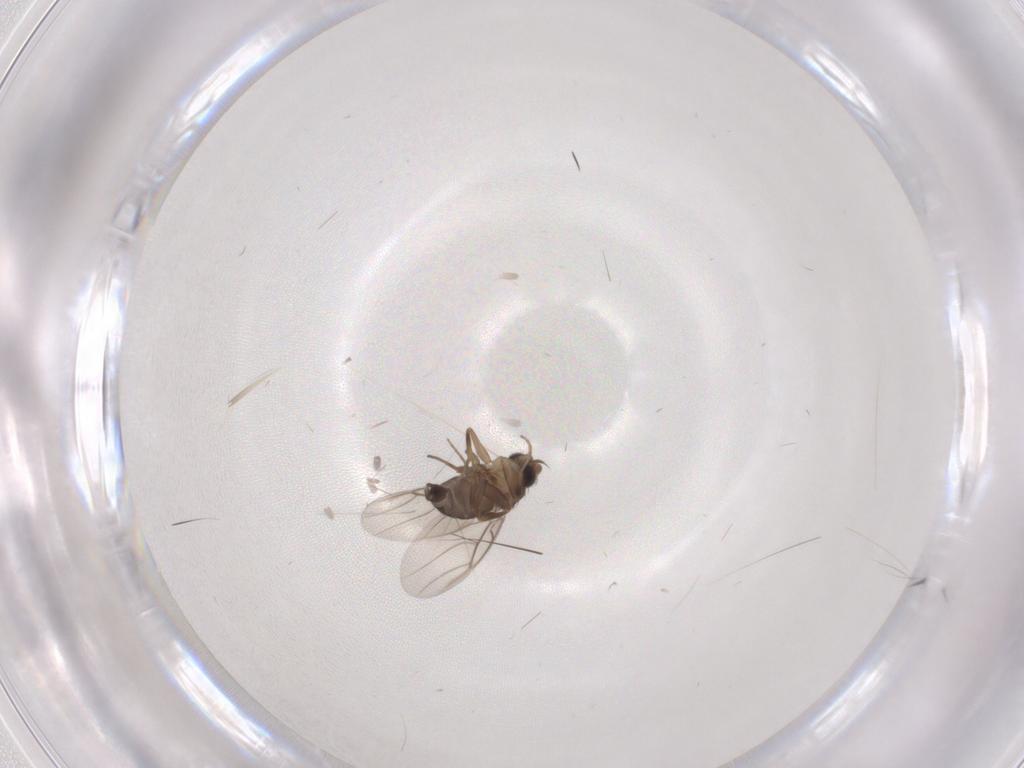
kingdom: Animalia
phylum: Arthropoda
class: Insecta
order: Diptera
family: Phoridae
